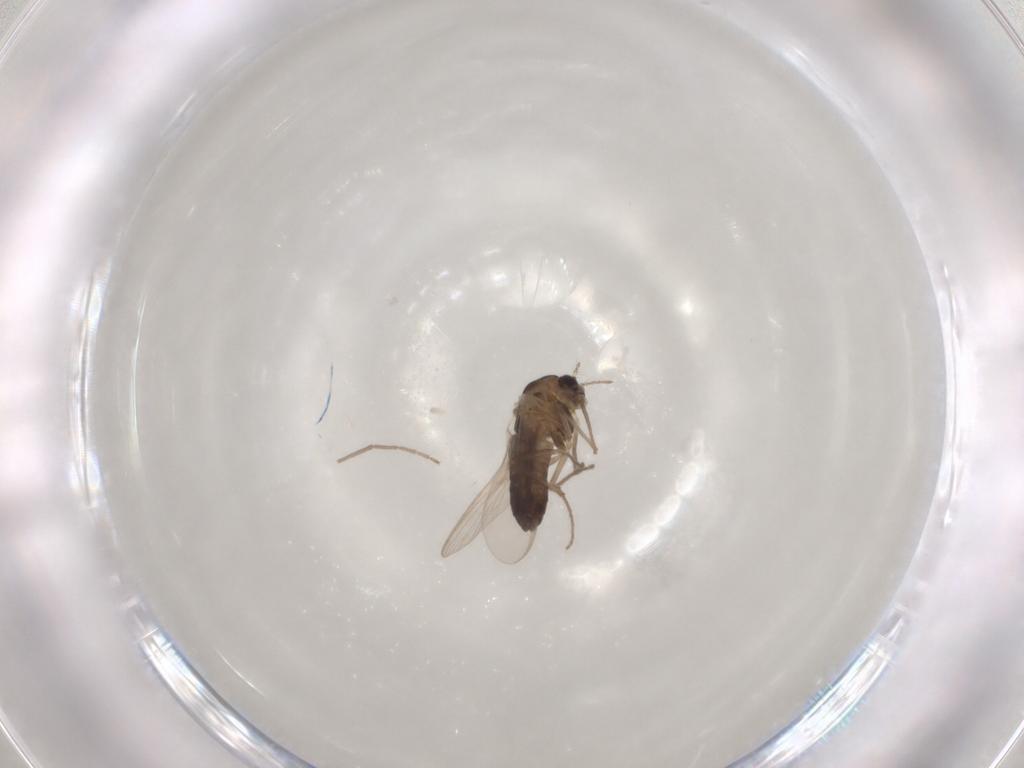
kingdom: Animalia
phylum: Arthropoda
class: Insecta
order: Diptera
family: Chironomidae
